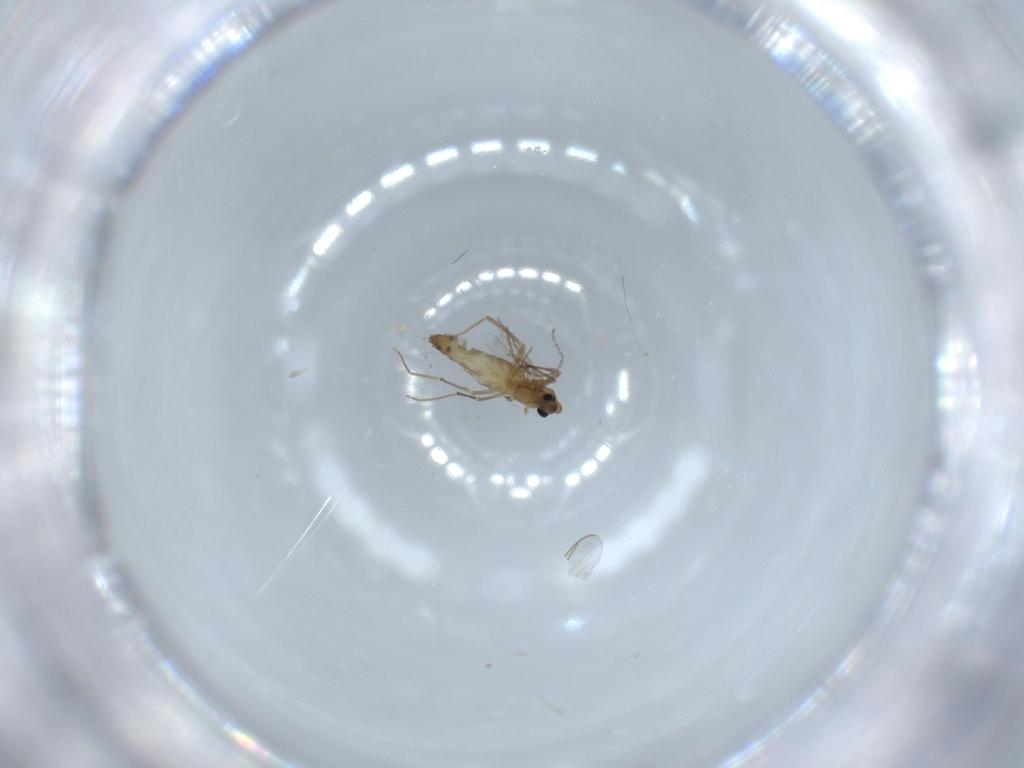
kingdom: Animalia
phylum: Arthropoda
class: Insecta
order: Diptera
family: Chironomidae
